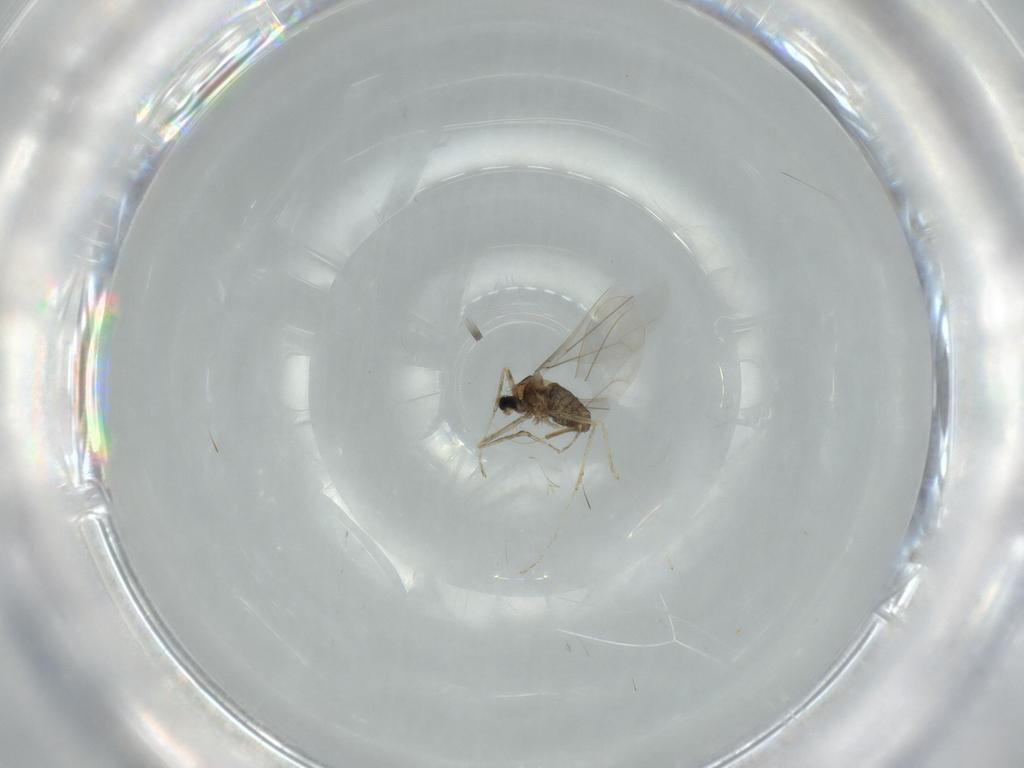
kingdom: Animalia
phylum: Arthropoda
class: Insecta
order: Diptera
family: Cecidomyiidae
